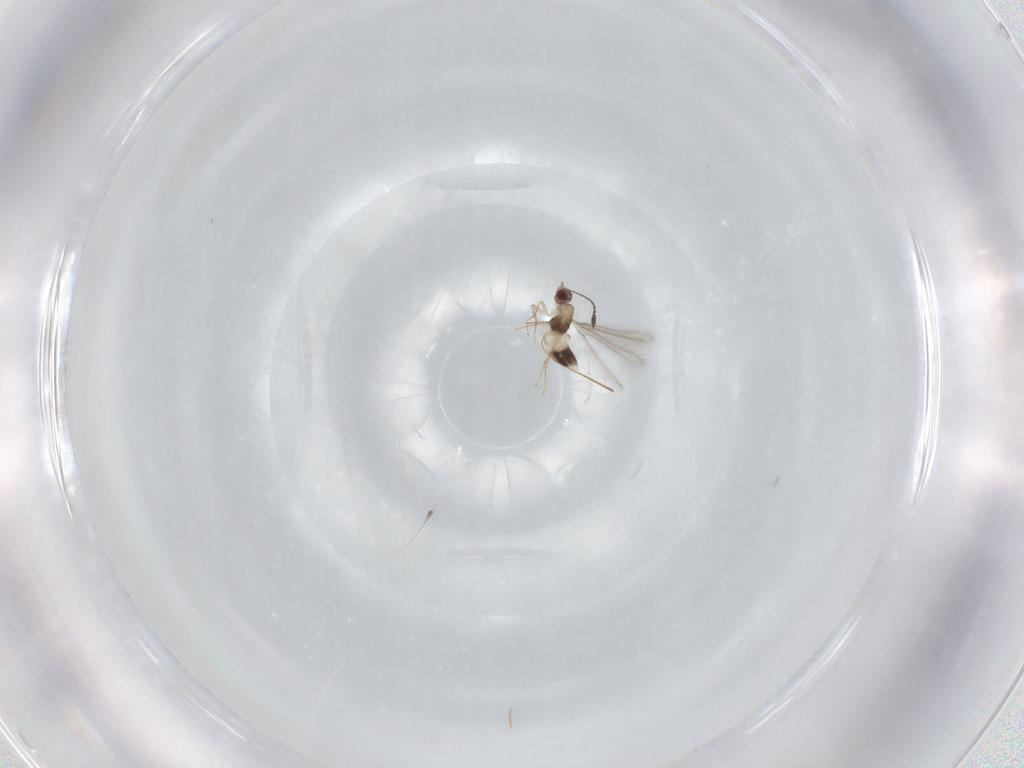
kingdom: Animalia
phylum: Arthropoda
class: Insecta
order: Hymenoptera
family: Mymaridae
